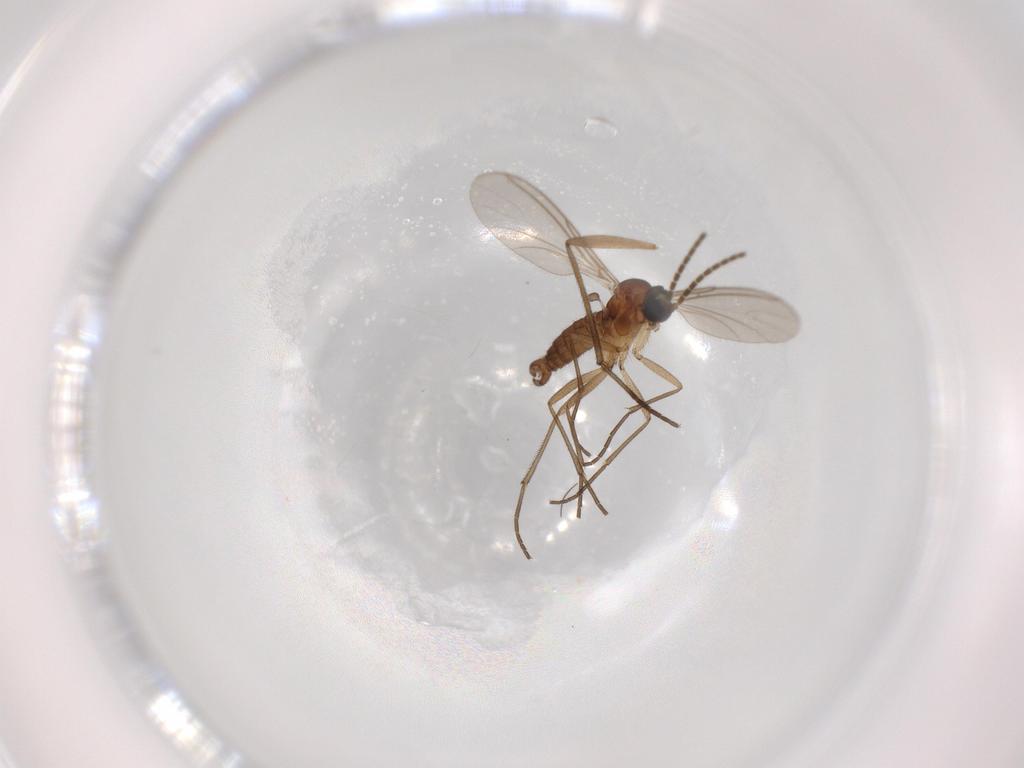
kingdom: Animalia
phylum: Arthropoda
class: Insecta
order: Diptera
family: Sciaridae
